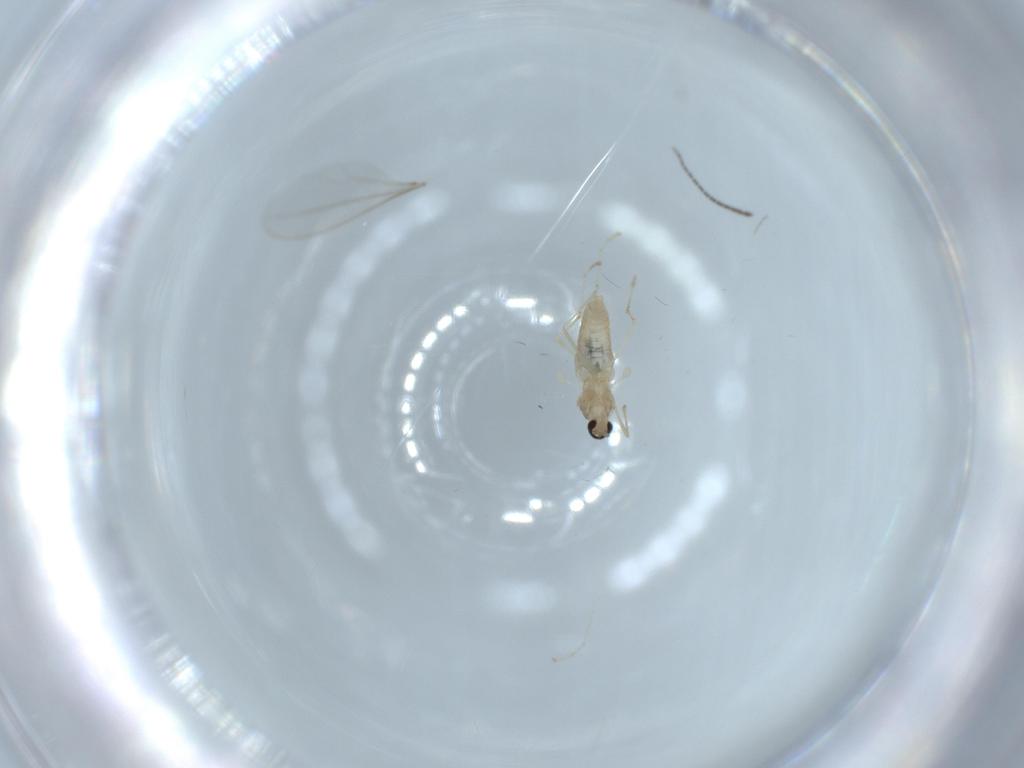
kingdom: Animalia
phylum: Arthropoda
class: Insecta
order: Diptera
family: Cecidomyiidae
